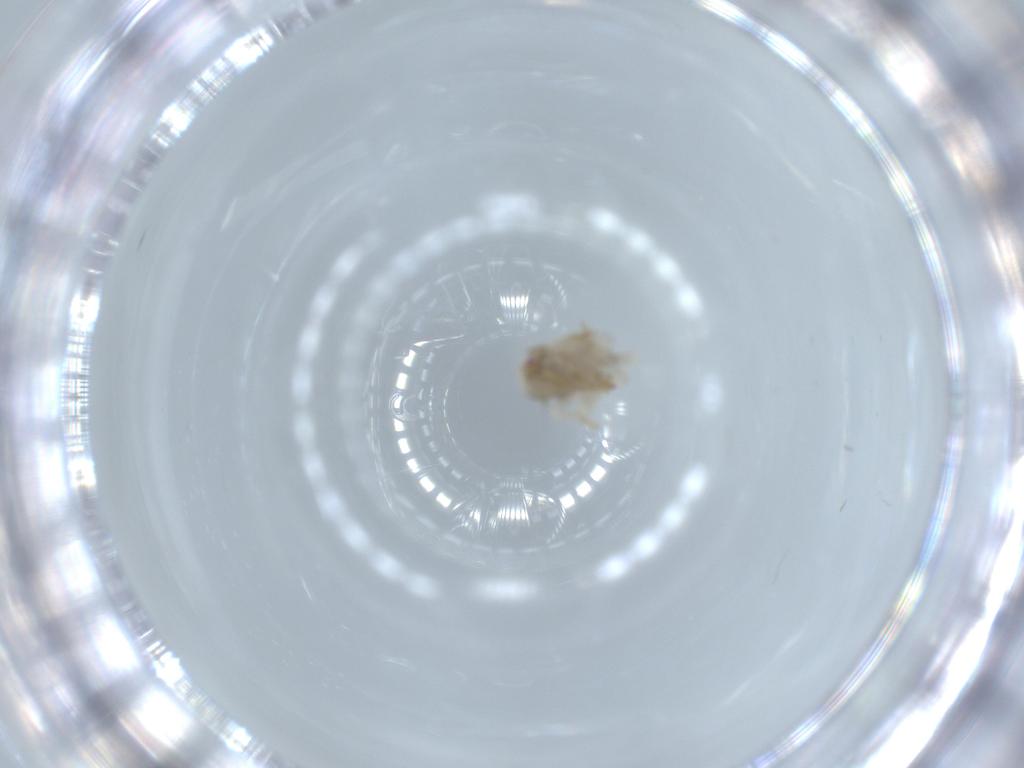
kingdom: Animalia
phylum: Arthropoda
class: Insecta
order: Hemiptera
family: Acanaloniidae
